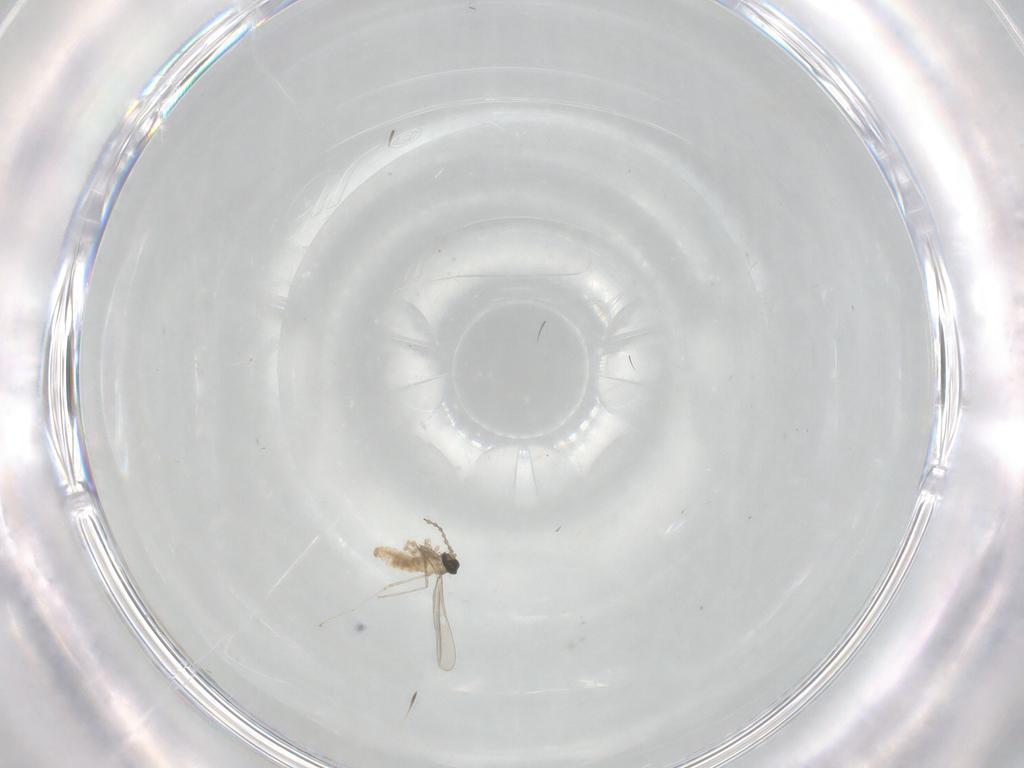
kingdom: Animalia
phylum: Arthropoda
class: Insecta
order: Diptera
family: Cecidomyiidae
